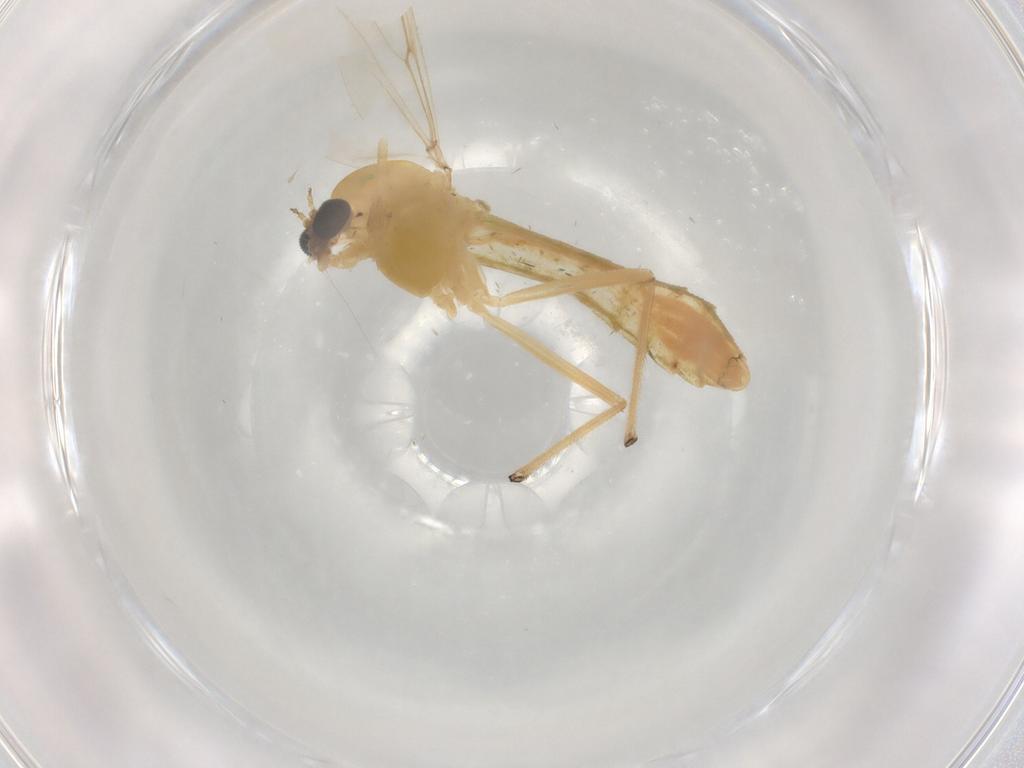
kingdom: Animalia
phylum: Arthropoda
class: Insecta
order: Diptera
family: Chironomidae
